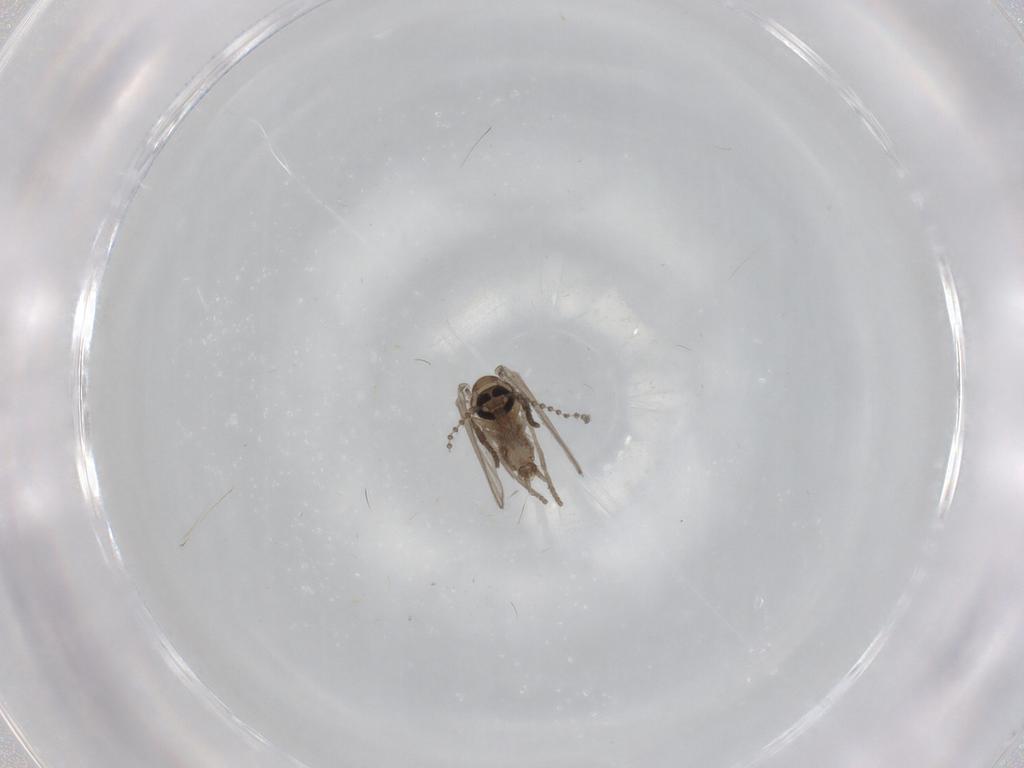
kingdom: Animalia
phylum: Arthropoda
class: Insecta
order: Diptera
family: Psychodidae
